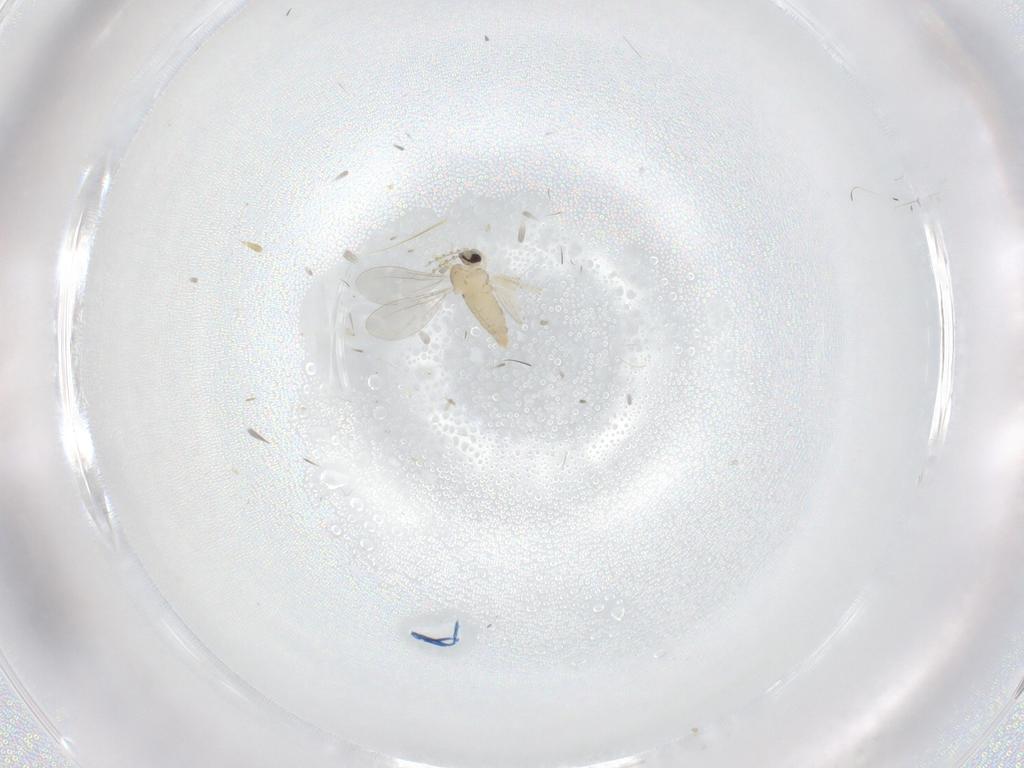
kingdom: Animalia
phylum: Arthropoda
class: Insecta
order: Diptera
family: Cecidomyiidae
